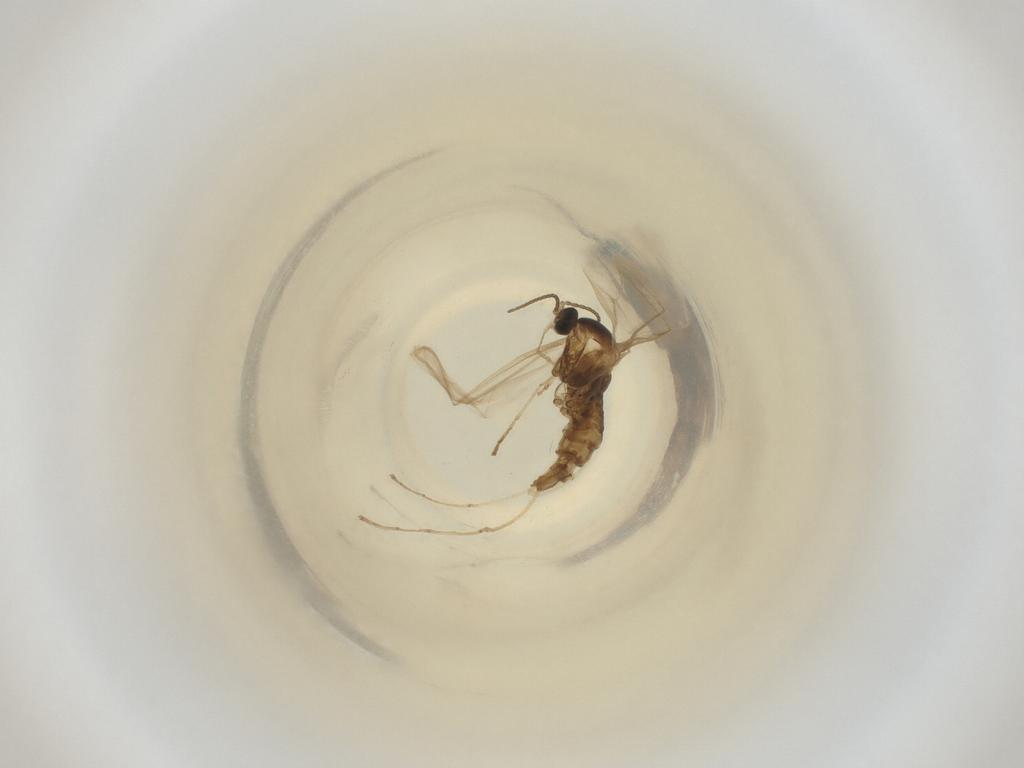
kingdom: Animalia
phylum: Arthropoda
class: Insecta
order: Diptera
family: Cecidomyiidae
